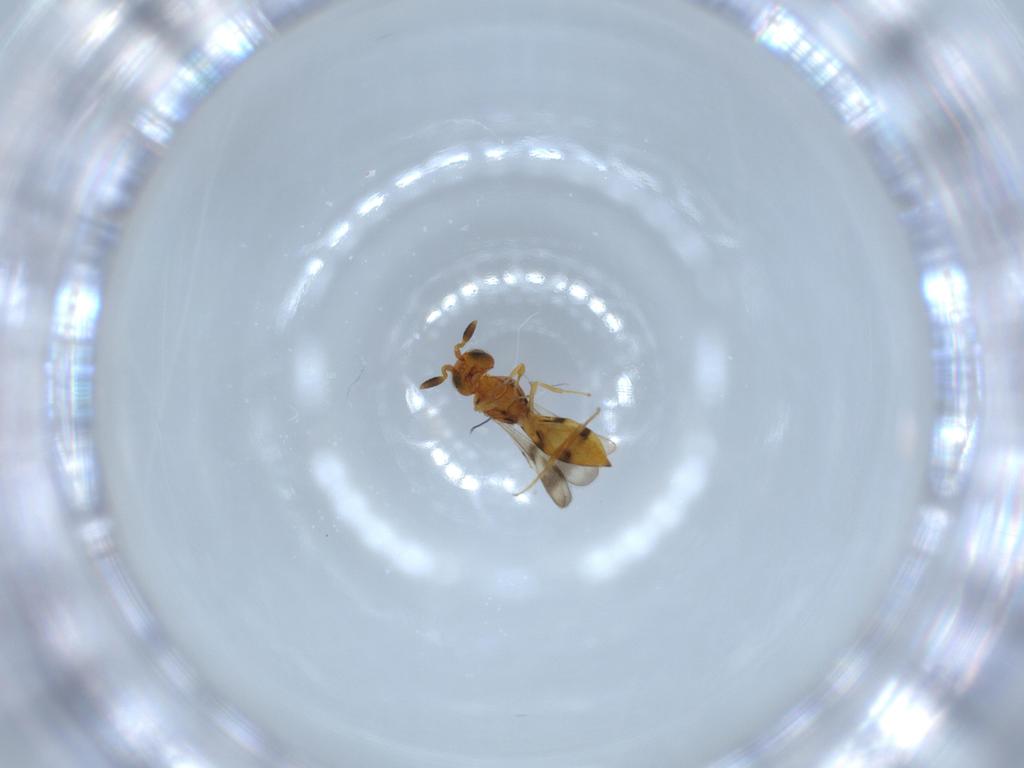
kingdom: Animalia
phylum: Arthropoda
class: Insecta
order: Hymenoptera
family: Scelionidae
